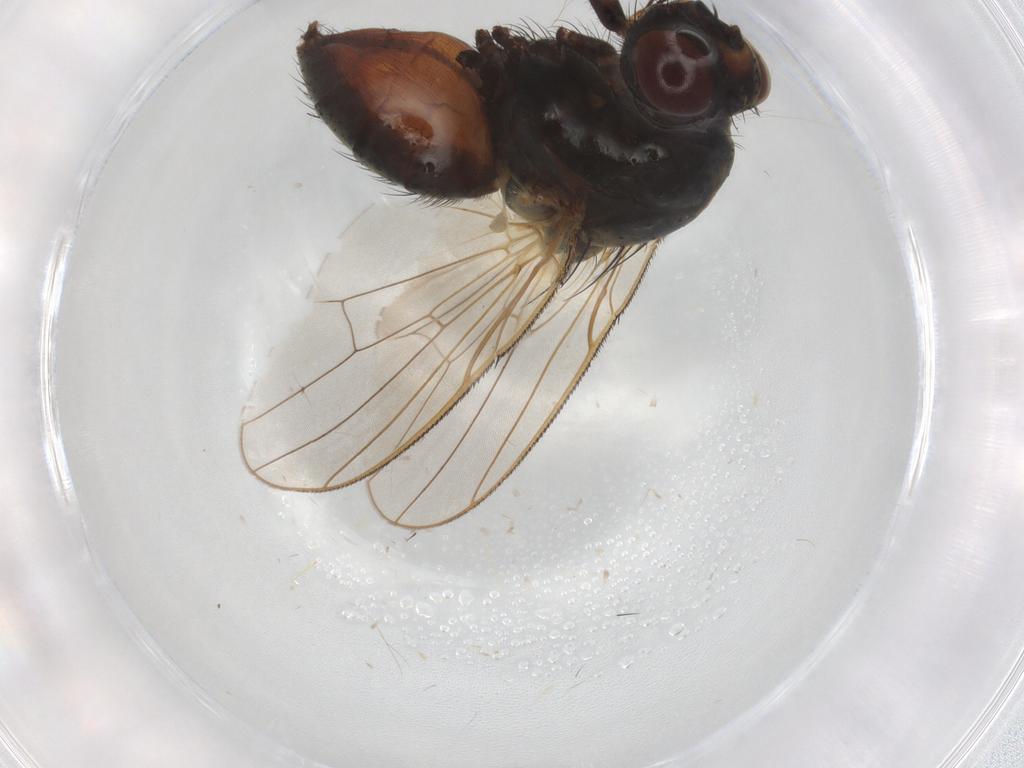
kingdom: Animalia
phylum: Arthropoda
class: Insecta
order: Diptera
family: Anthomyiidae
